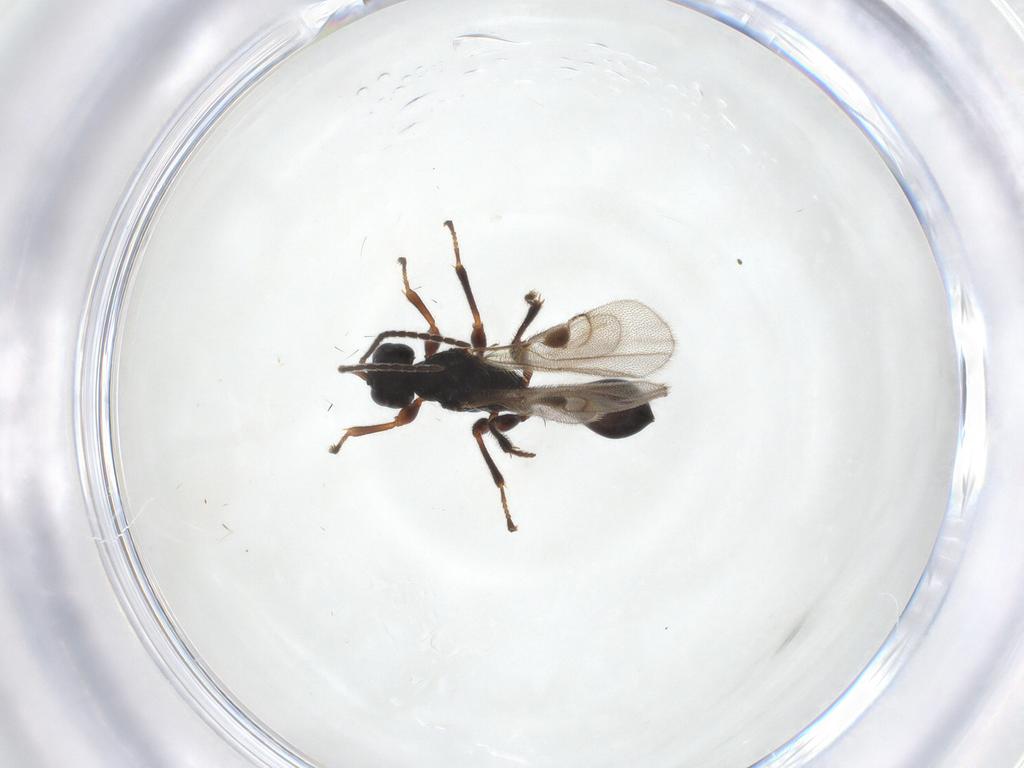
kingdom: Animalia
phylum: Arthropoda
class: Insecta
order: Hymenoptera
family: Braconidae
